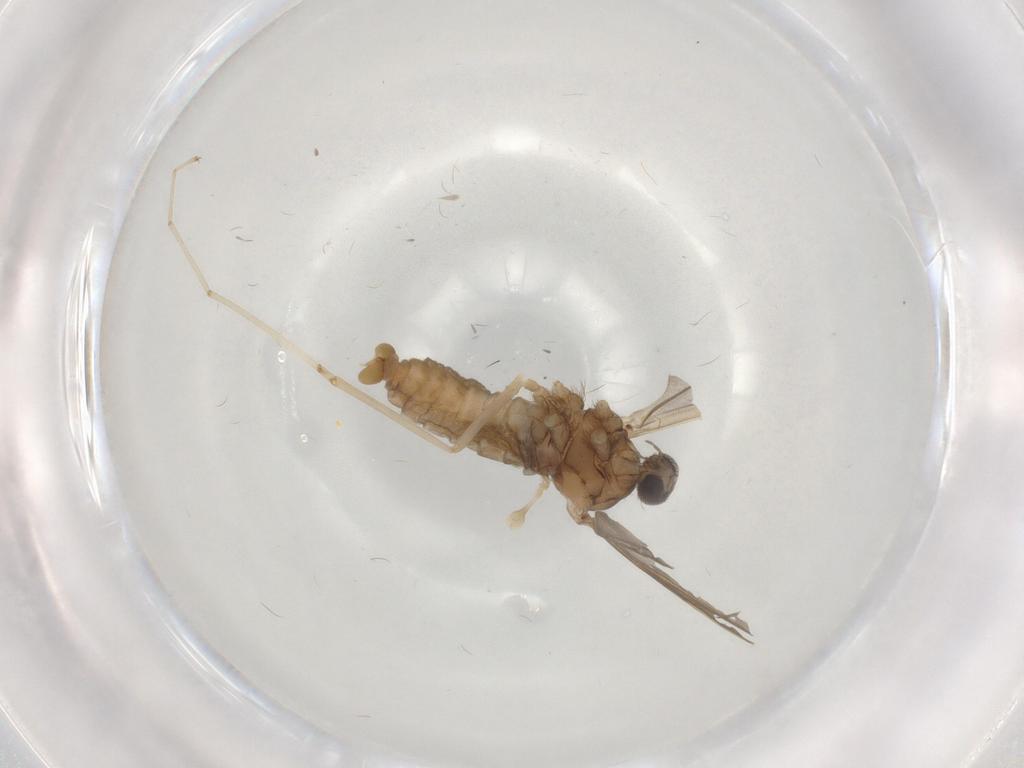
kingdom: Animalia
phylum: Arthropoda
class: Insecta
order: Diptera
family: Cecidomyiidae
